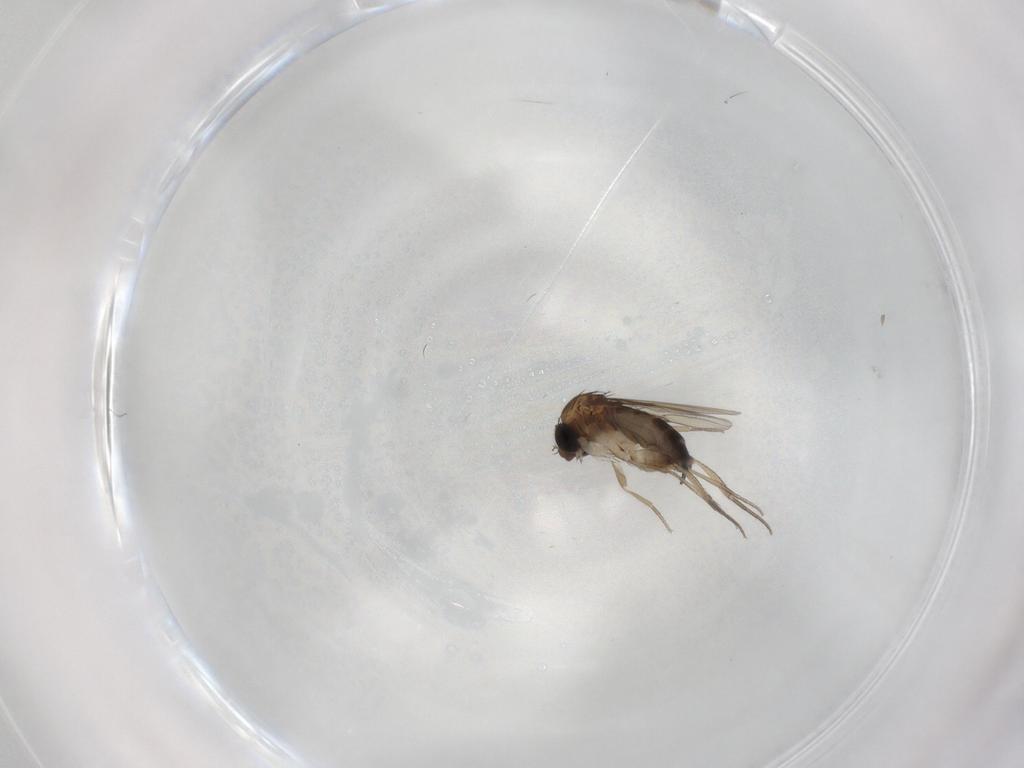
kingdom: Animalia
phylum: Arthropoda
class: Insecta
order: Diptera
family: Phoridae
